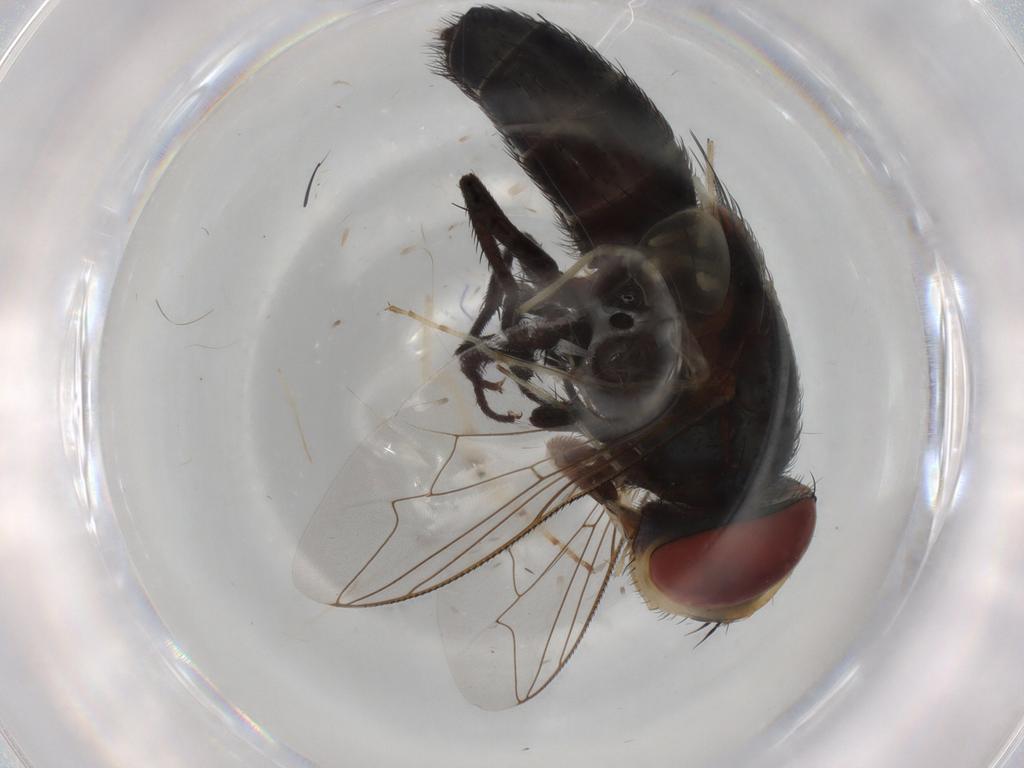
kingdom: Animalia
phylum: Arthropoda
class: Insecta
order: Diptera
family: Sarcophagidae
